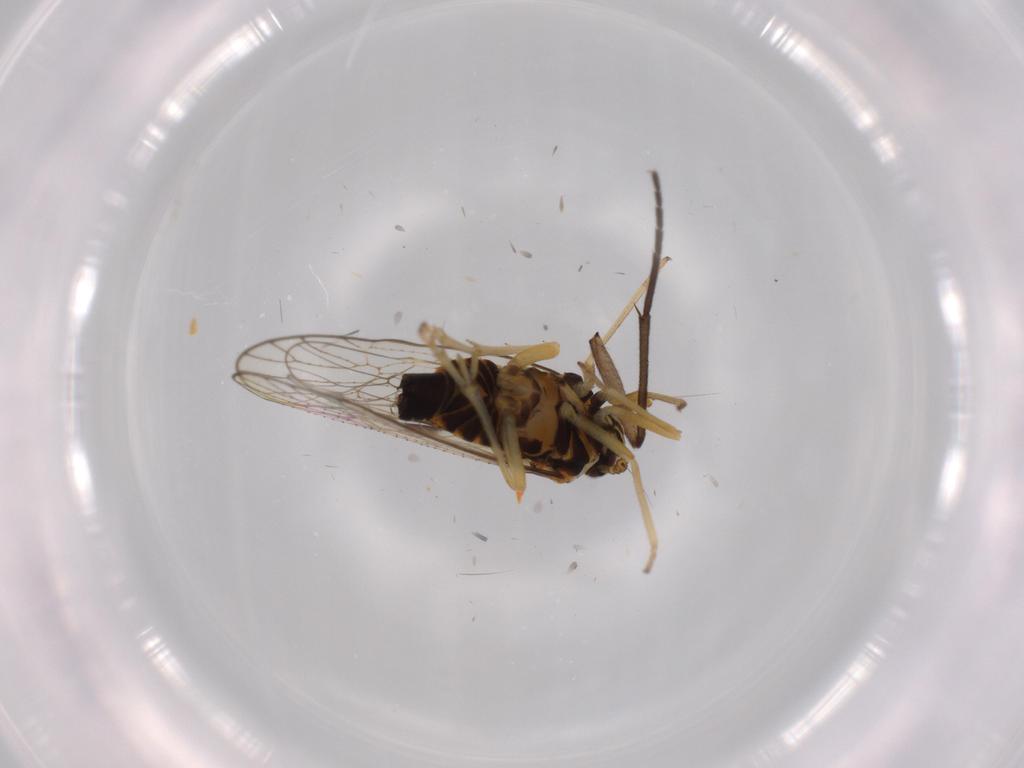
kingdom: Animalia
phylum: Arthropoda
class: Insecta
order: Hemiptera
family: Cicadellidae
